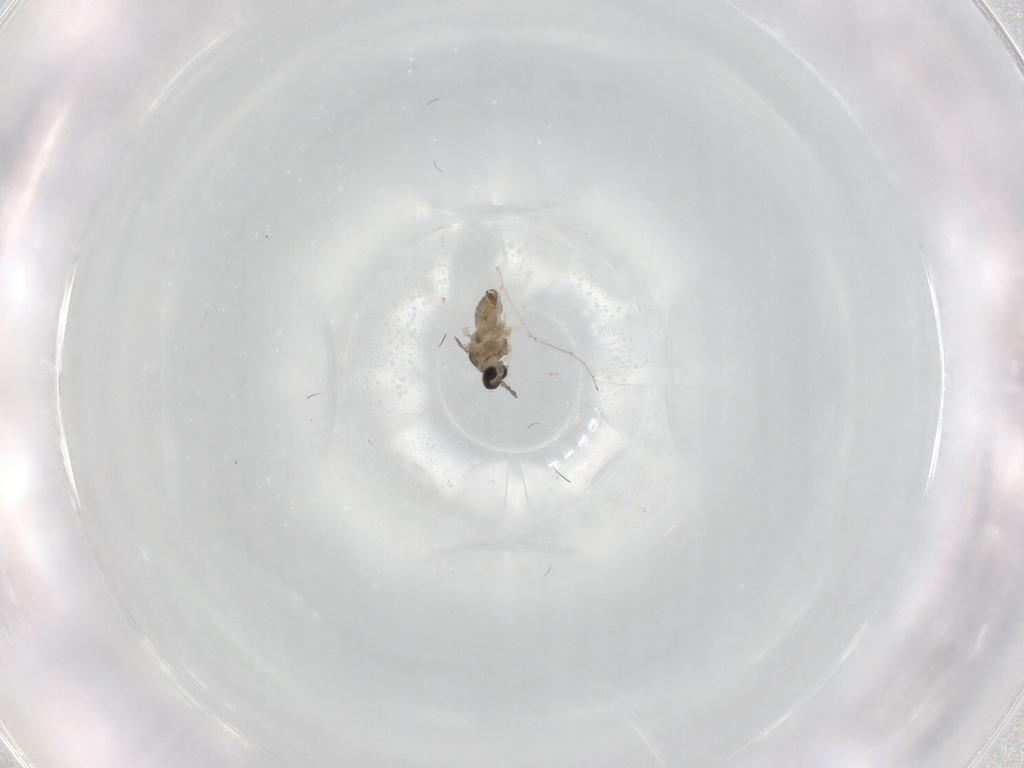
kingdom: Animalia
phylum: Arthropoda
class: Insecta
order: Diptera
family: Cecidomyiidae
